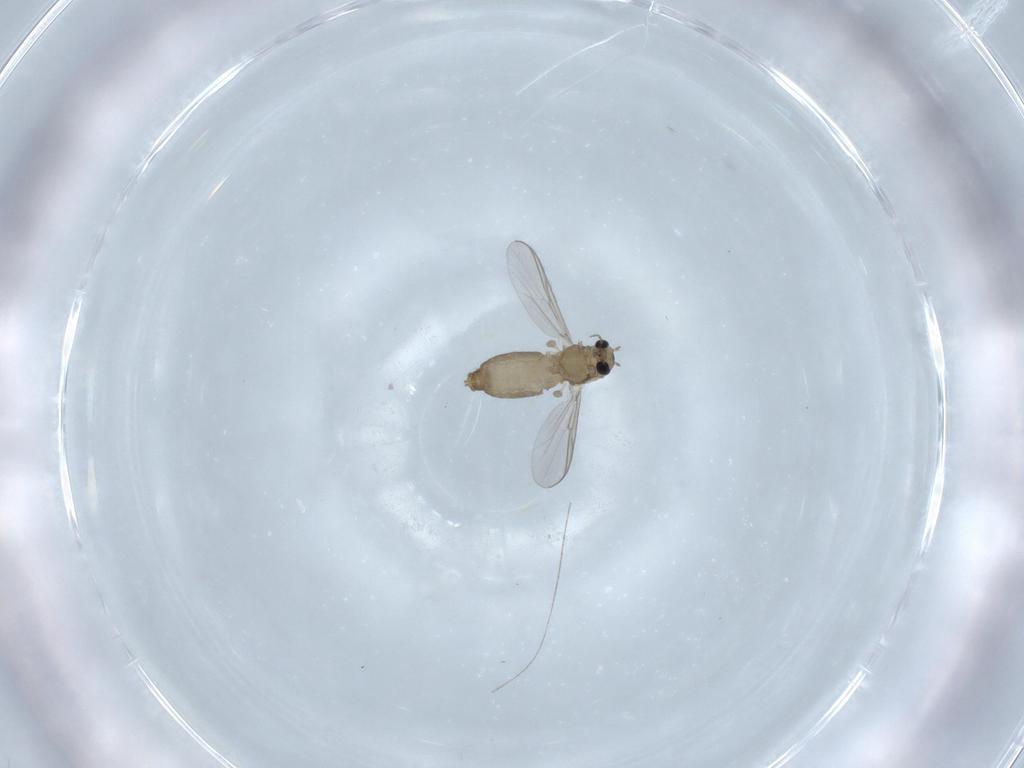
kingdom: Animalia
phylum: Arthropoda
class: Insecta
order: Diptera
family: Chironomidae
